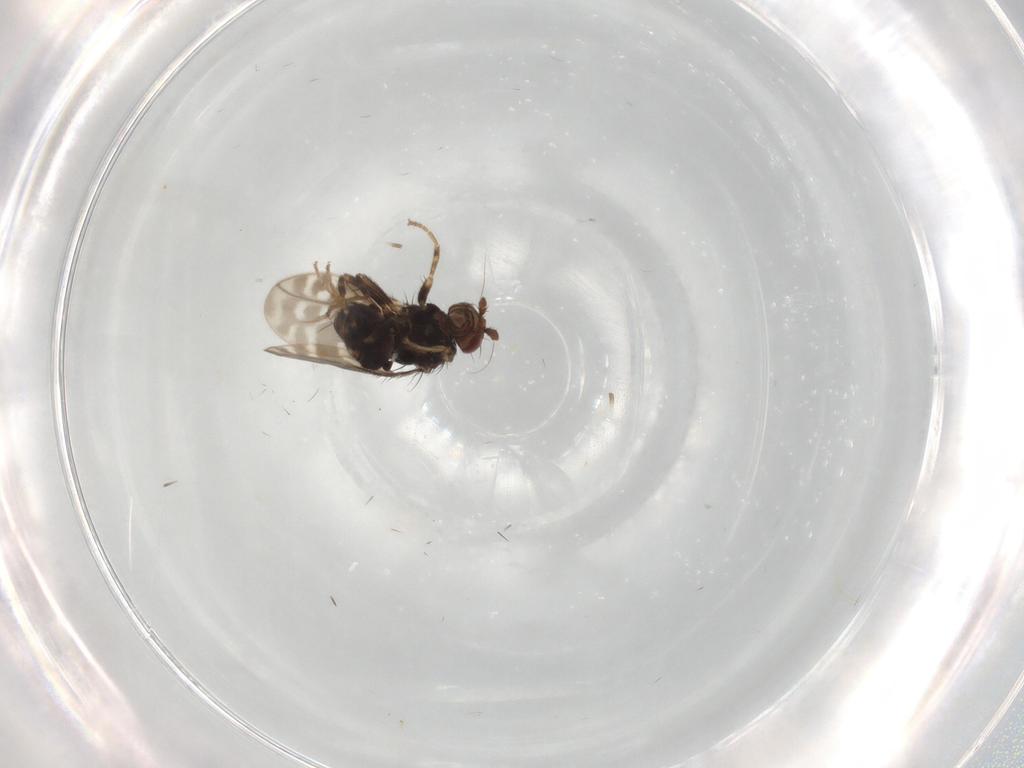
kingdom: Animalia
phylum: Arthropoda
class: Insecta
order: Diptera
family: Sphaeroceridae
